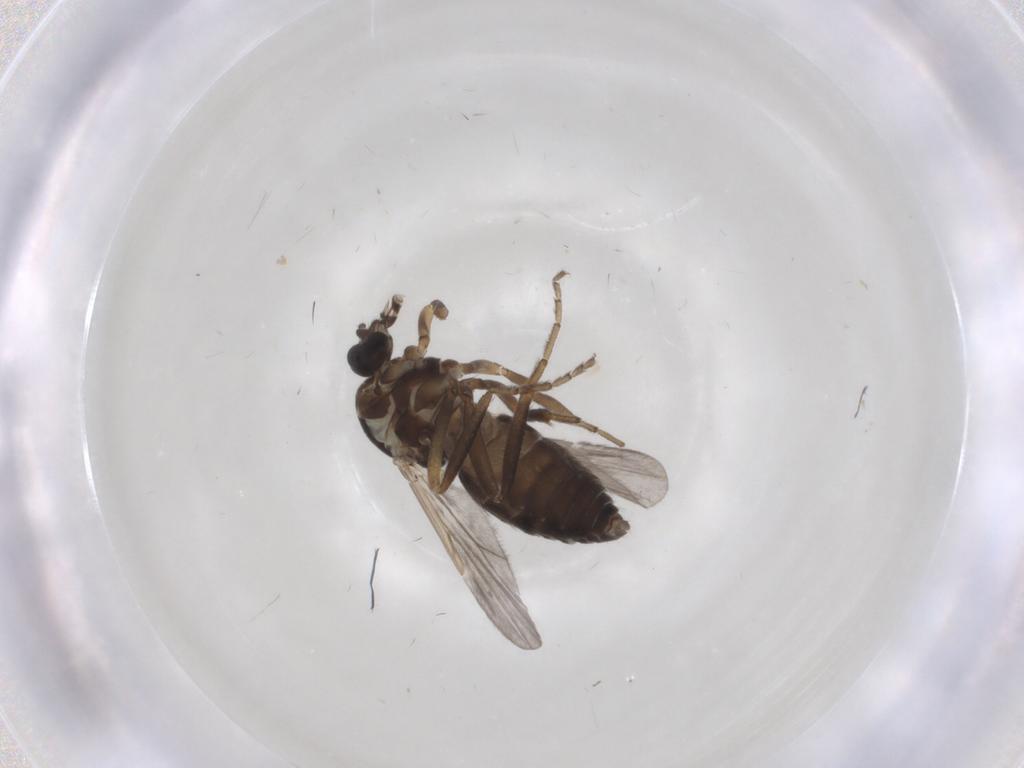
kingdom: Animalia
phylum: Arthropoda
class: Insecta
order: Diptera
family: Ceratopogonidae
